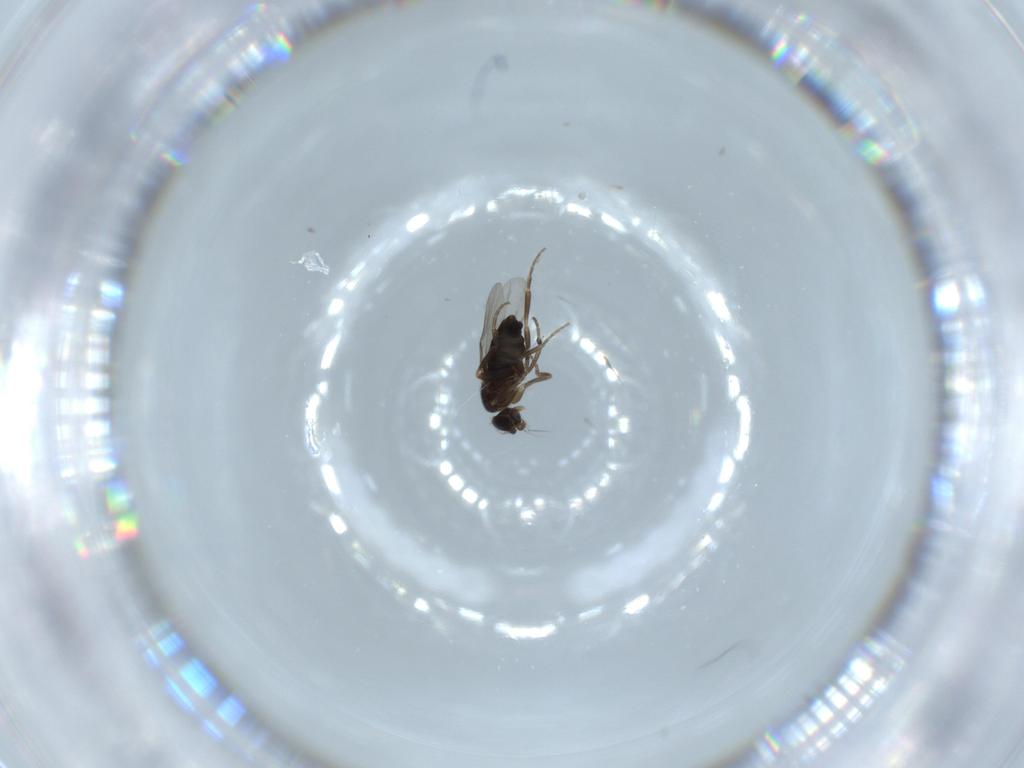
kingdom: Animalia
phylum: Arthropoda
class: Insecta
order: Diptera
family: Phoridae
